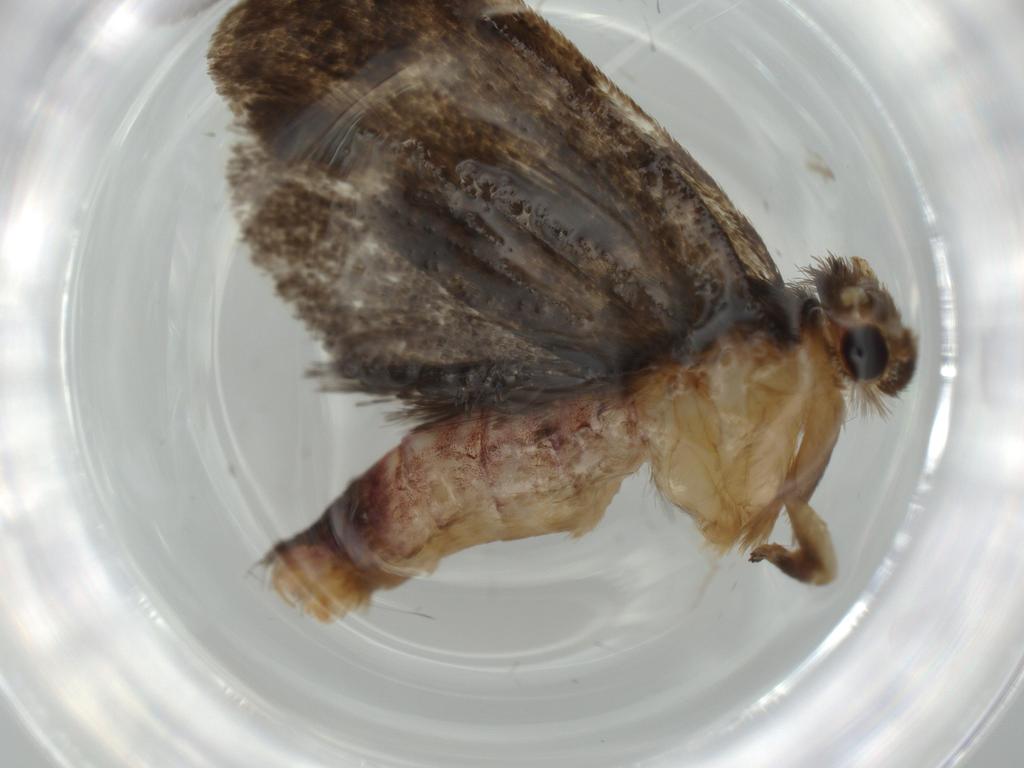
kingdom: Animalia
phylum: Arthropoda
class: Insecta
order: Lepidoptera
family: Tineidae
